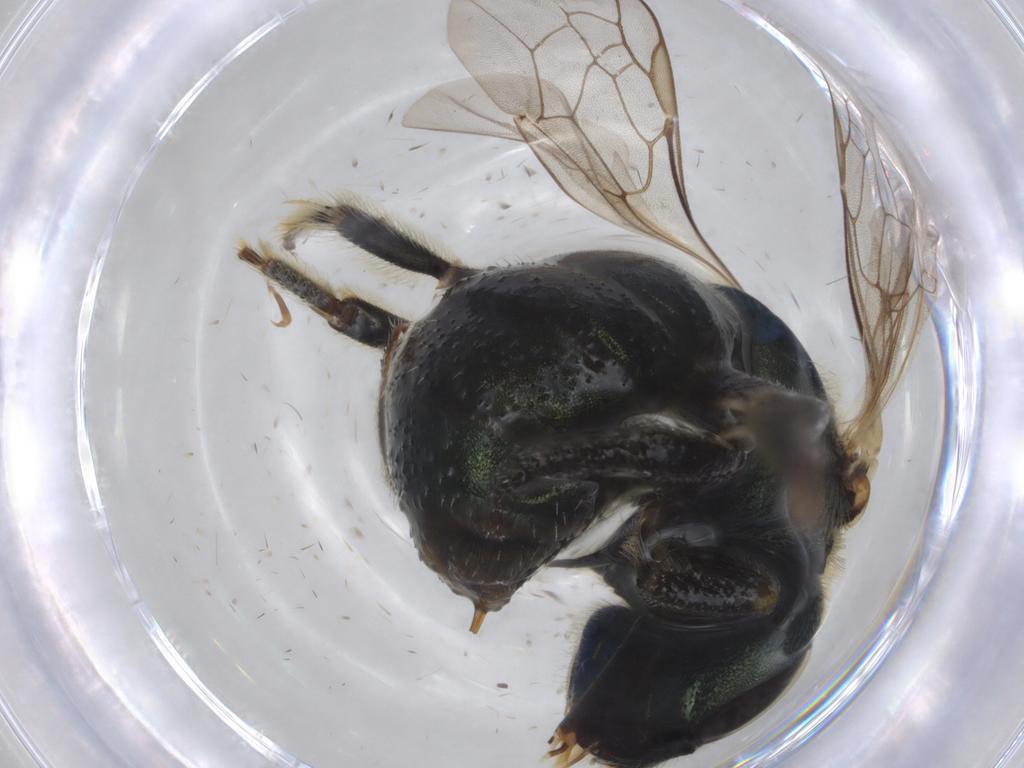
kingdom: Animalia
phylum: Arthropoda
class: Insecta
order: Hymenoptera
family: Halictidae
